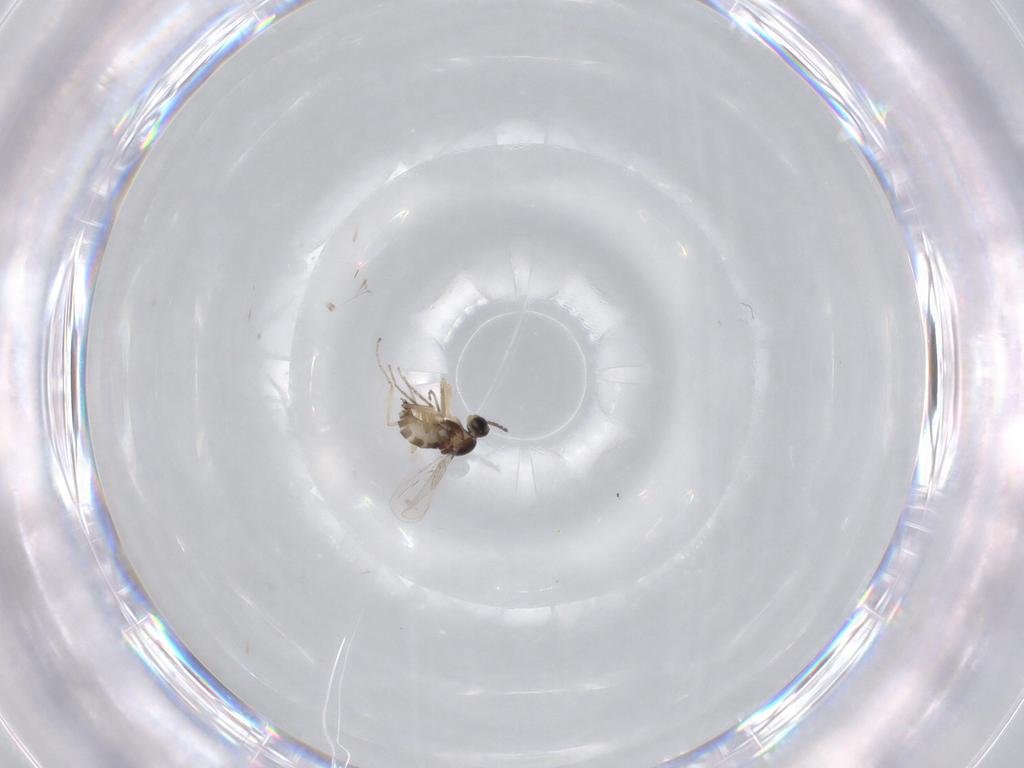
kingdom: Animalia
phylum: Arthropoda
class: Insecta
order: Diptera
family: Cecidomyiidae
